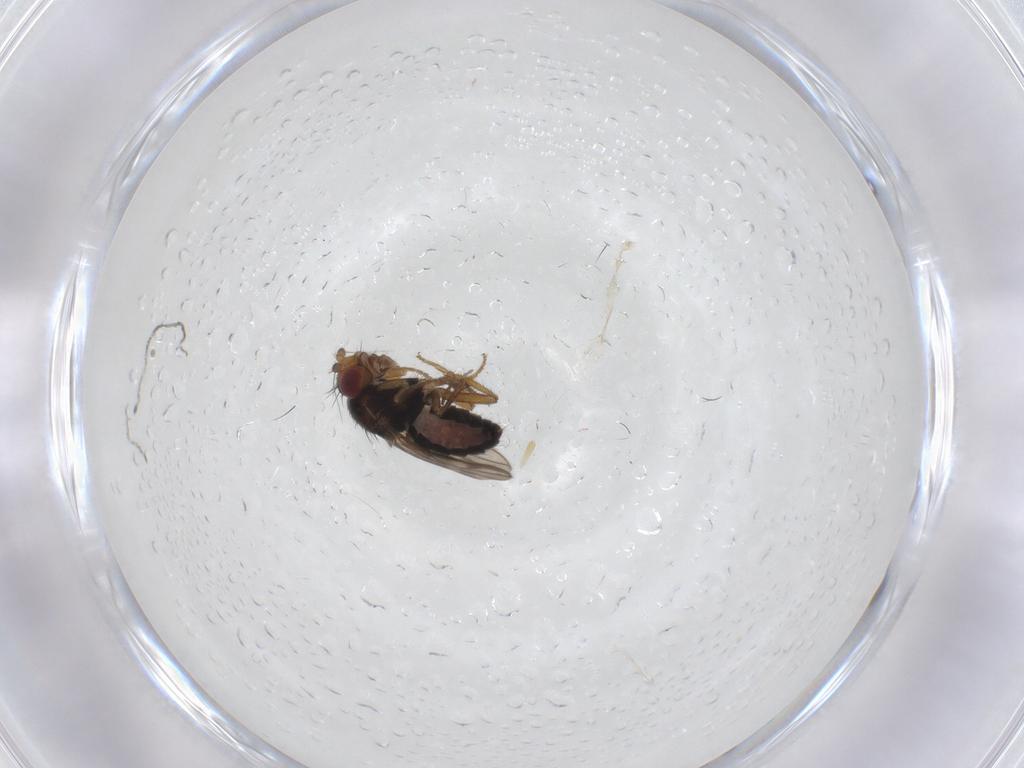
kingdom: Animalia
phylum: Arthropoda
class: Insecta
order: Diptera
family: Sphaeroceridae
